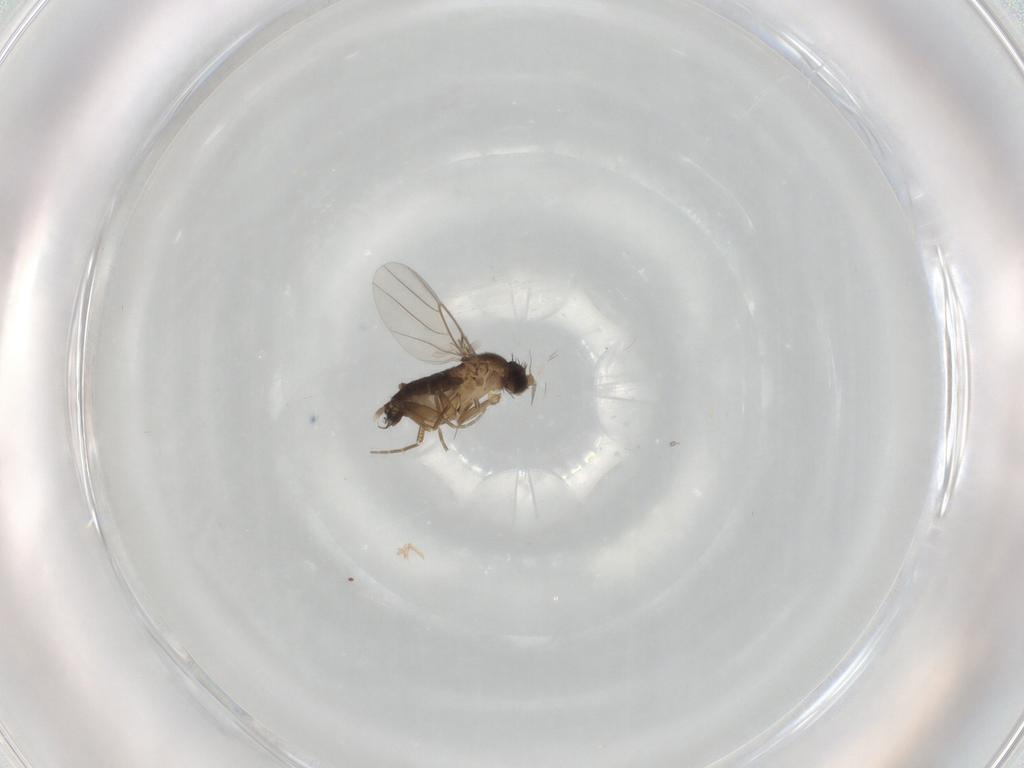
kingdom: Animalia
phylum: Arthropoda
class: Insecta
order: Diptera
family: Phoridae
